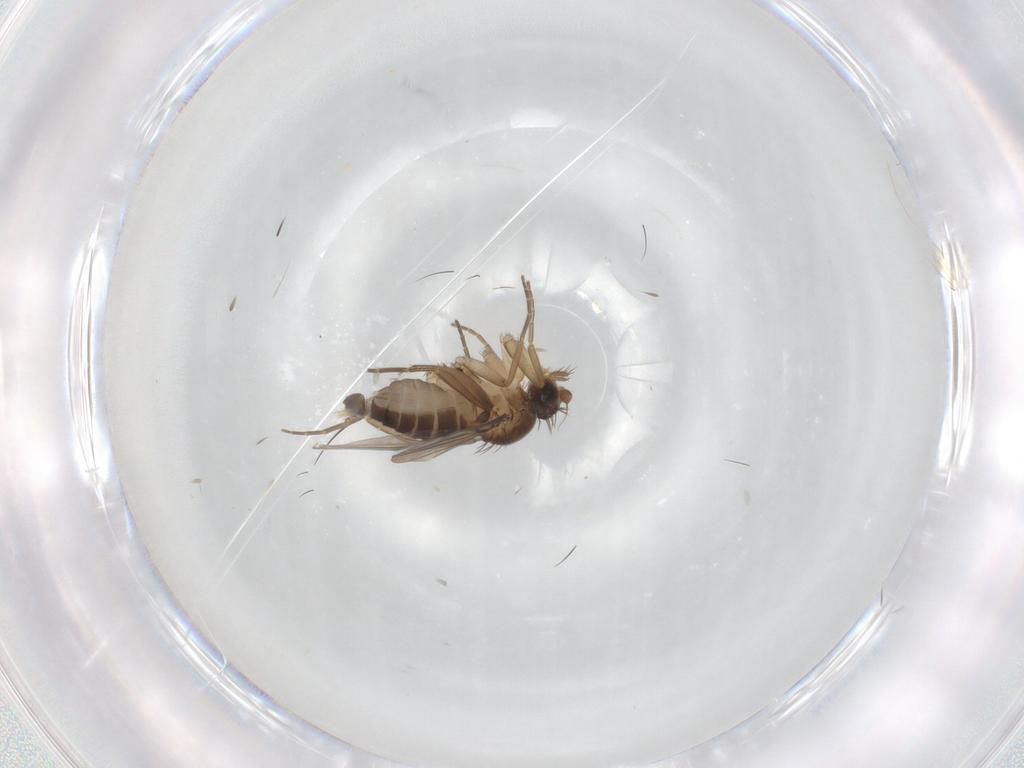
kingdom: Animalia
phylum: Arthropoda
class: Insecta
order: Diptera
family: Phoridae
